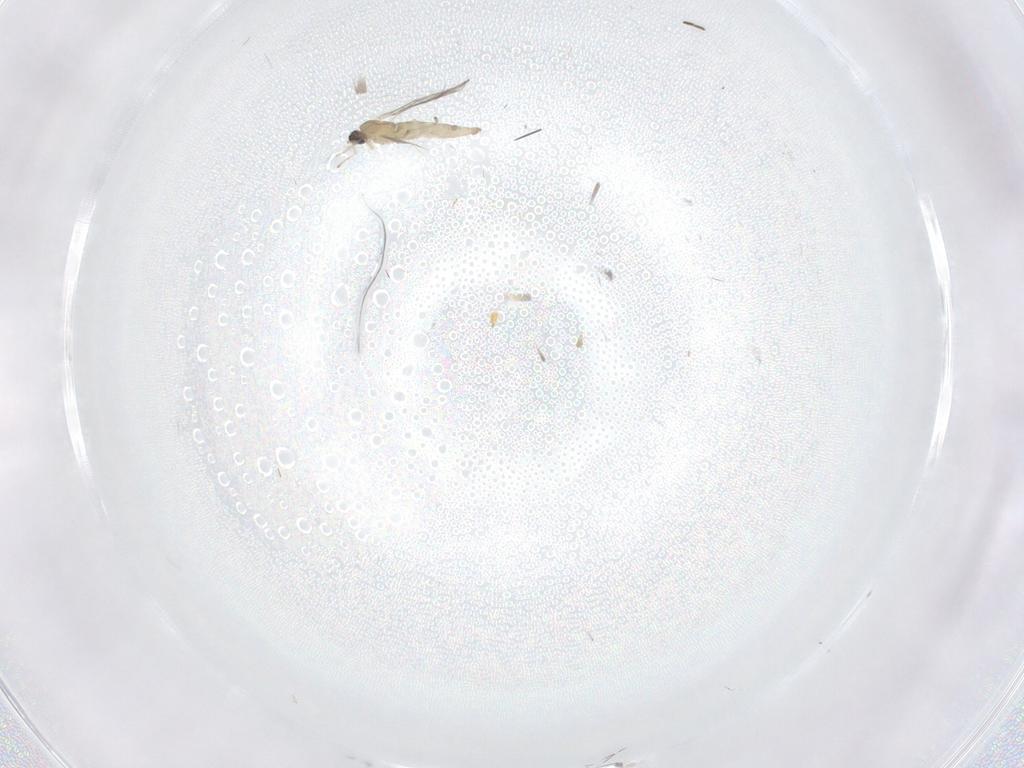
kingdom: Animalia
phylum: Arthropoda
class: Insecta
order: Diptera
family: Cecidomyiidae
